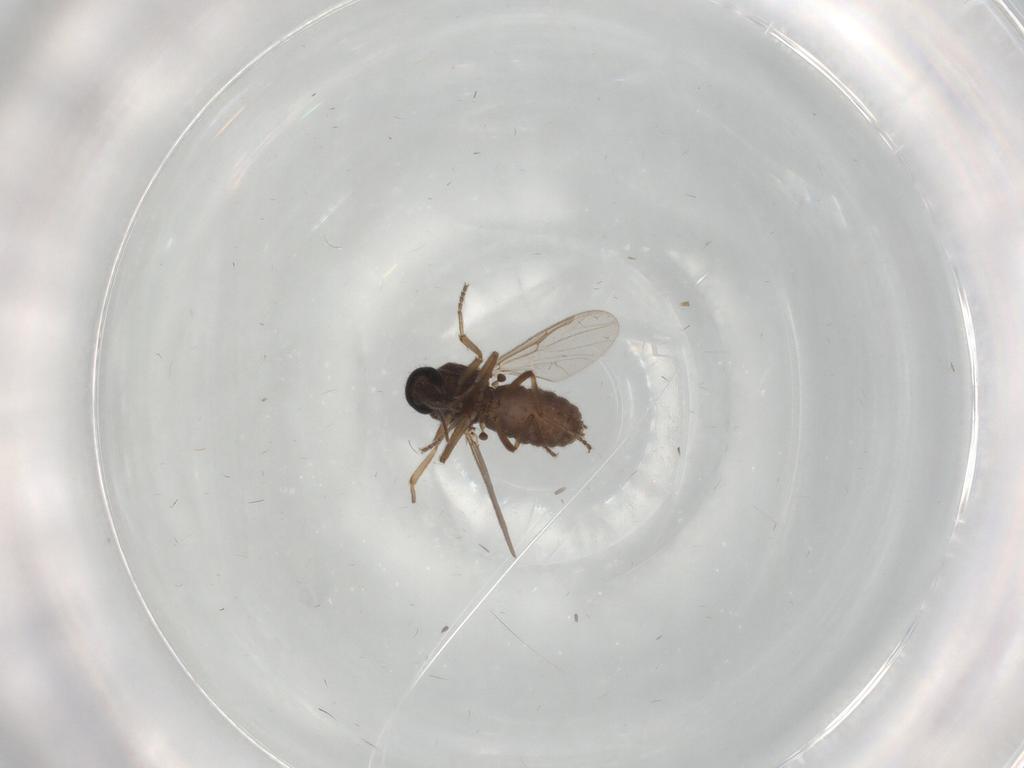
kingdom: Animalia
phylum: Arthropoda
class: Insecta
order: Diptera
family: Ceratopogonidae
